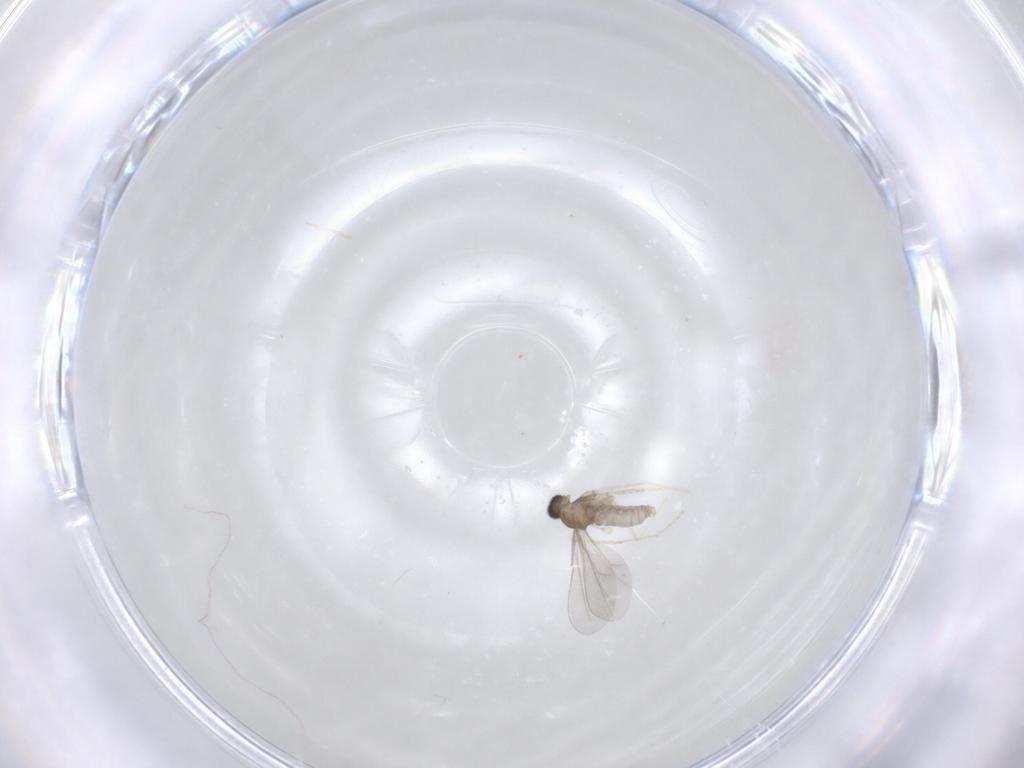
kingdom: Animalia
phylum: Arthropoda
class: Insecta
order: Diptera
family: Cecidomyiidae
